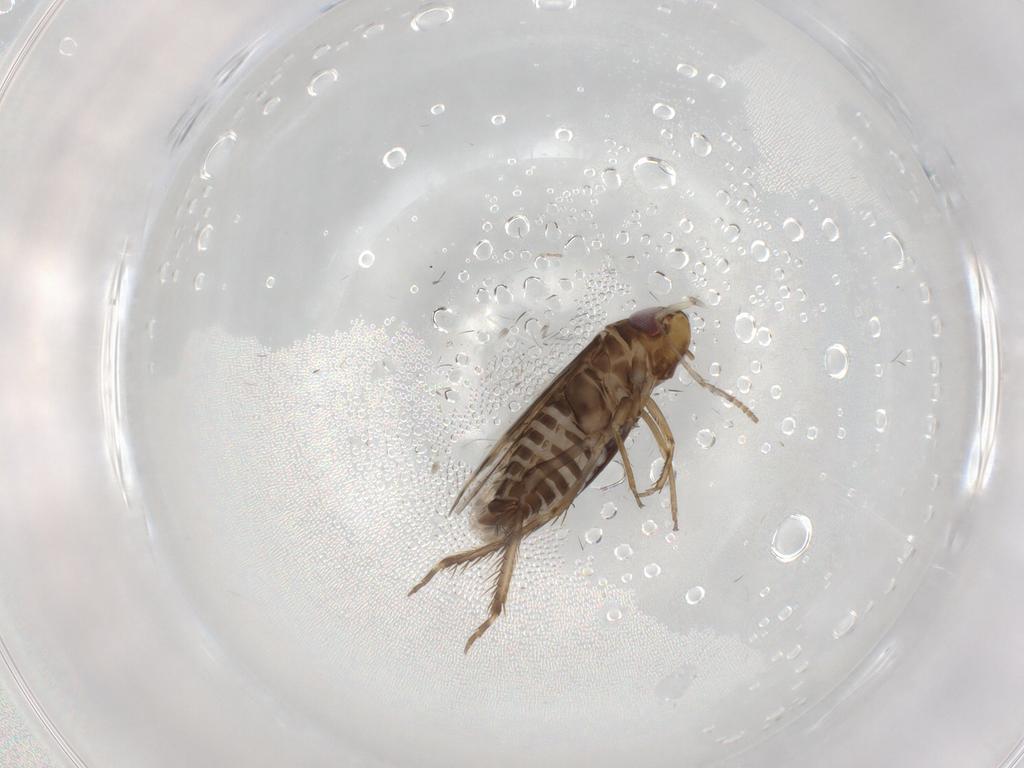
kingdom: Animalia
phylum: Arthropoda
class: Insecta
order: Hemiptera
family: Cicadellidae
